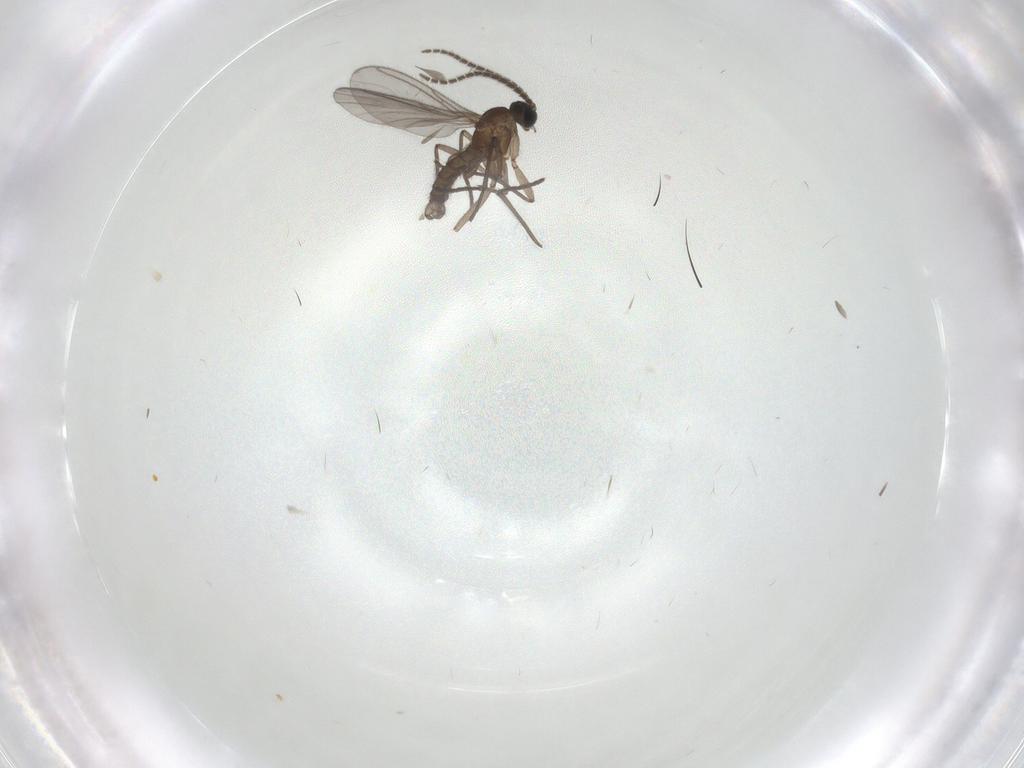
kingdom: Animalia
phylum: Arthropoda
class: Insecta
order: Diptera
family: Sciaridae
